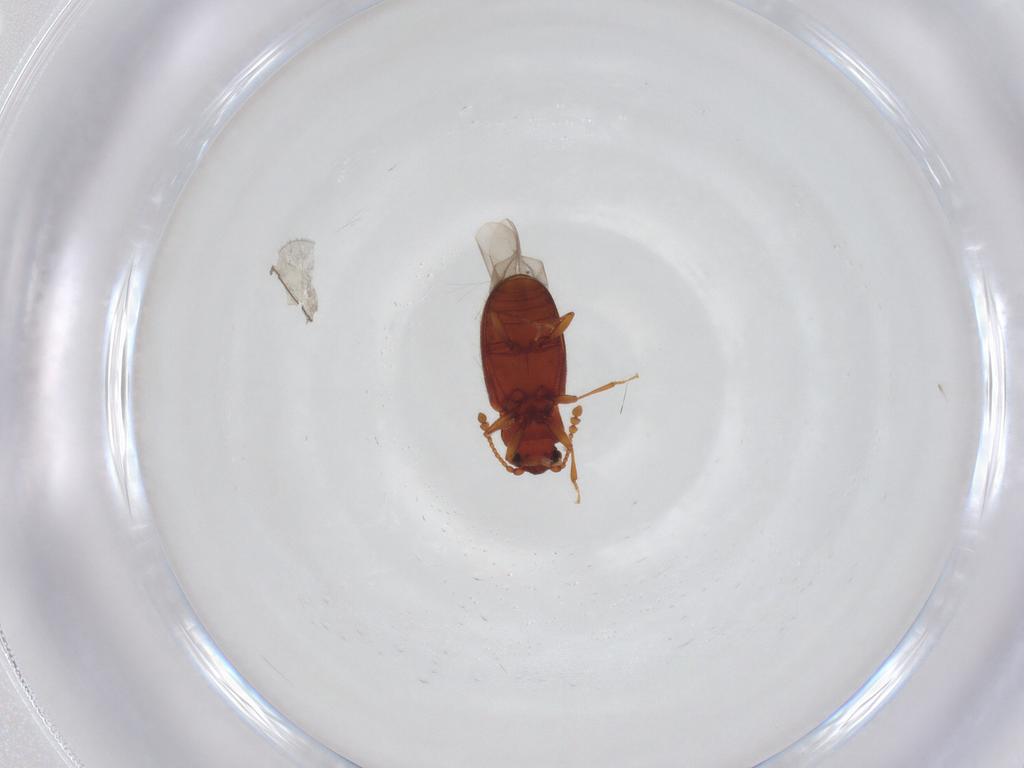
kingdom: Animalia
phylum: Arthropoda
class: Insecta
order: Coleoptera
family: Cryptophagidae
